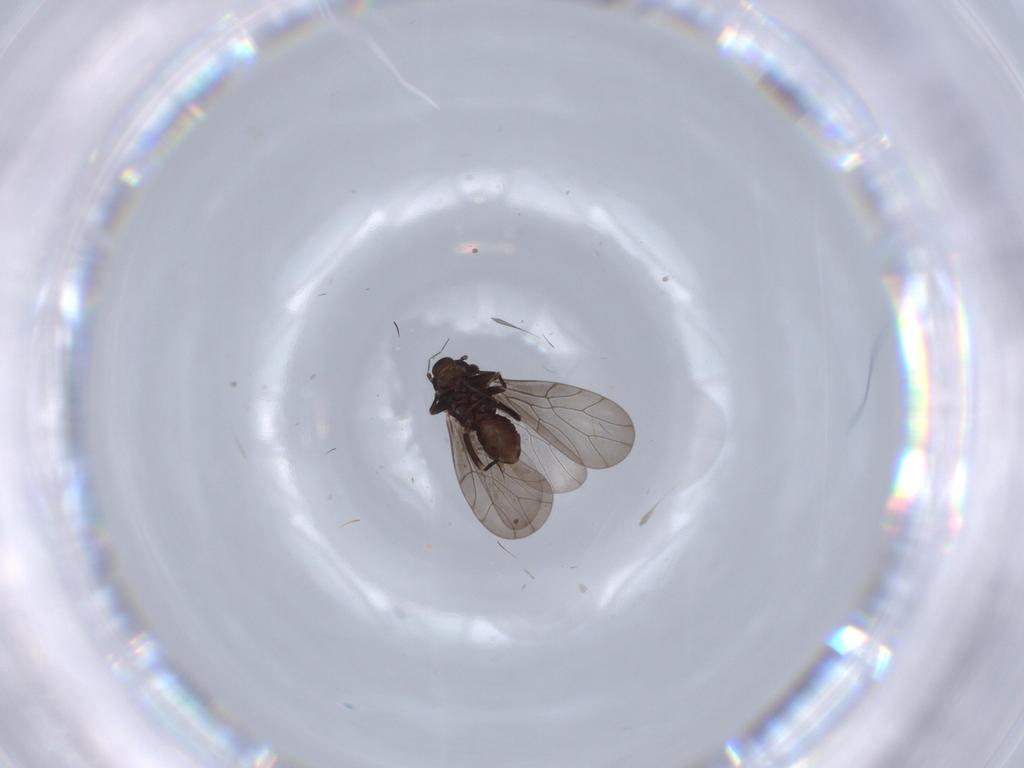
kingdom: Animalia
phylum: Arthropoda
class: Insecta
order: Psocodea
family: Lepidopsocidae
